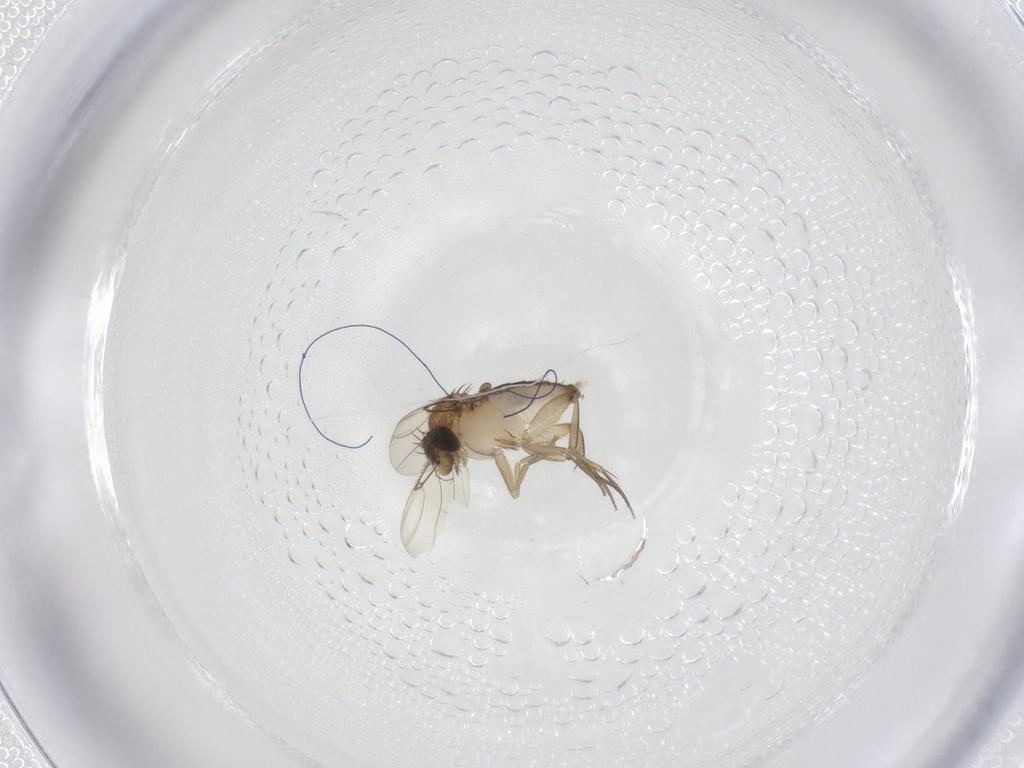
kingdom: Animalia
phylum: Arthropoda
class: Insecta
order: Diptera
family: Phoridae
